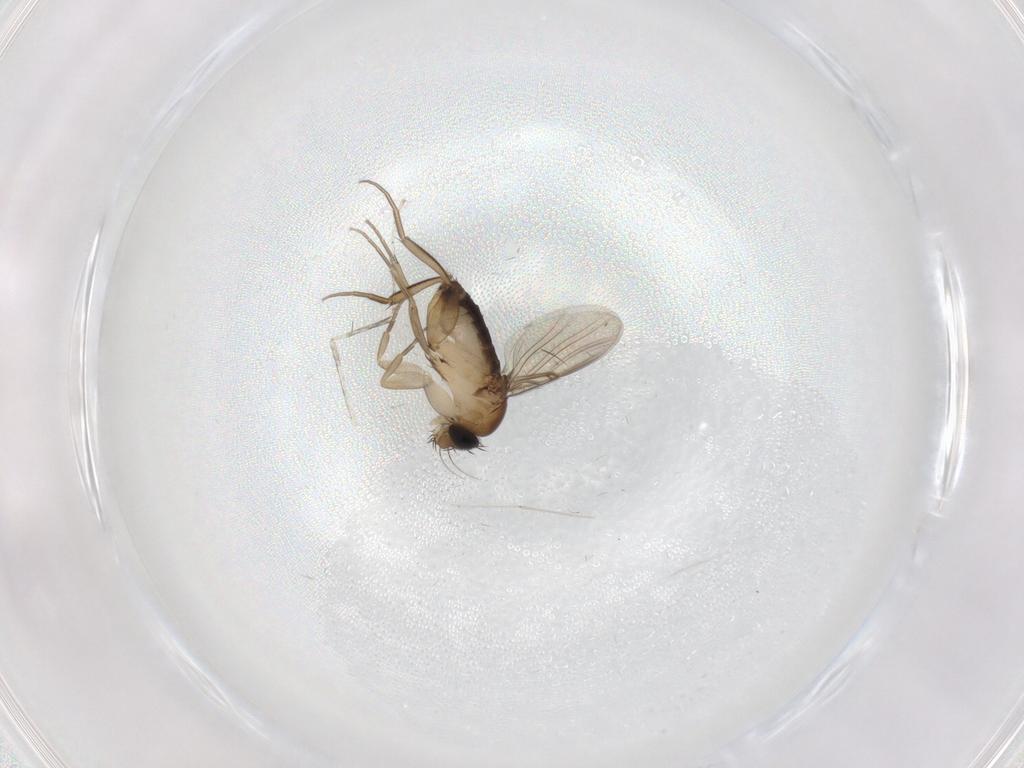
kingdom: Animalia
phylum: Arthropoda
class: Insecta
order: Diptera
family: Phoridae
